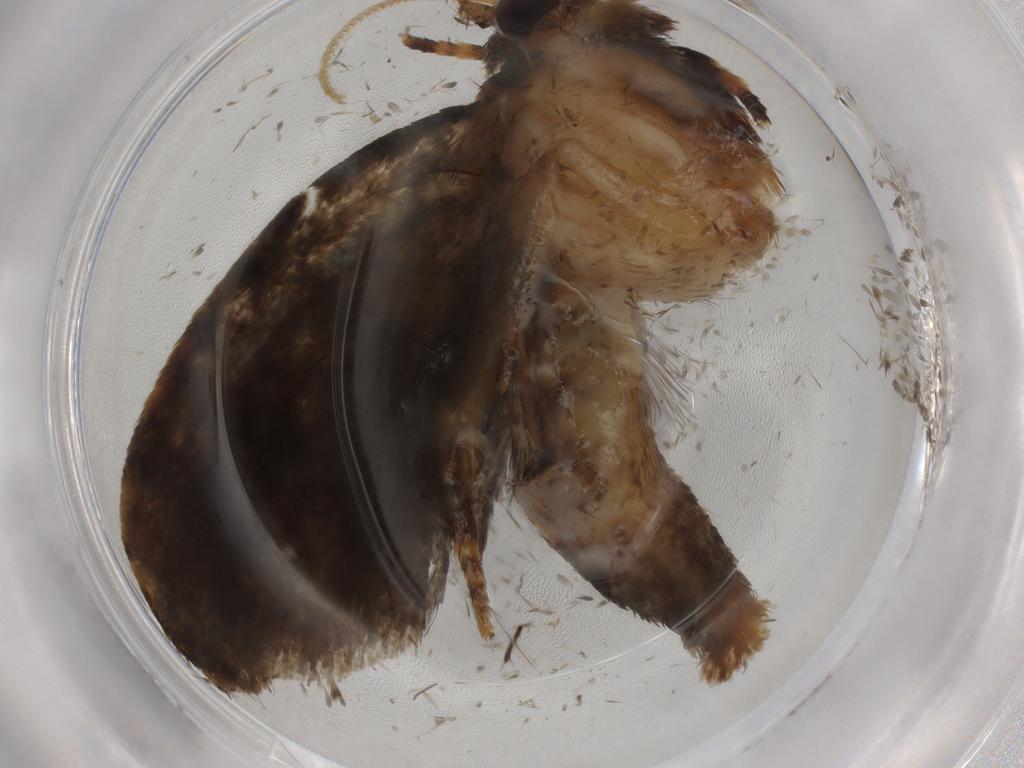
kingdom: Animalia
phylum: Arthropoda
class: Insecta
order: Lepidoptera
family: Tineidae
